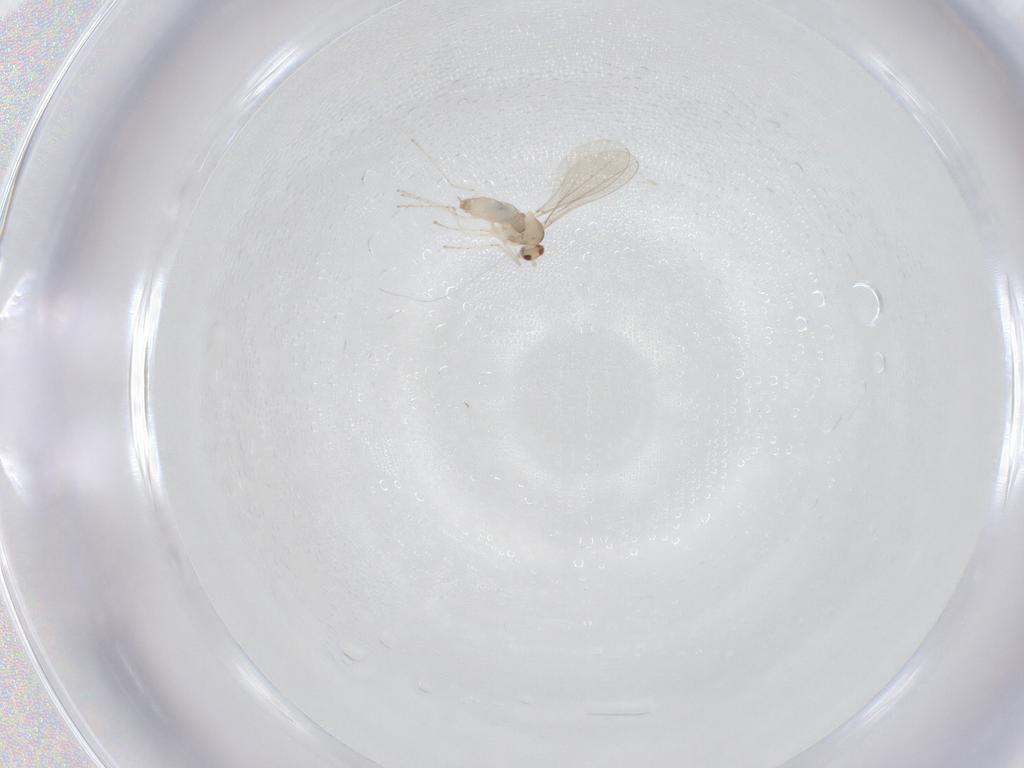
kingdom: Animalia
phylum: Arthropoda
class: Insecta
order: Diptera
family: Cecidomyiidae
